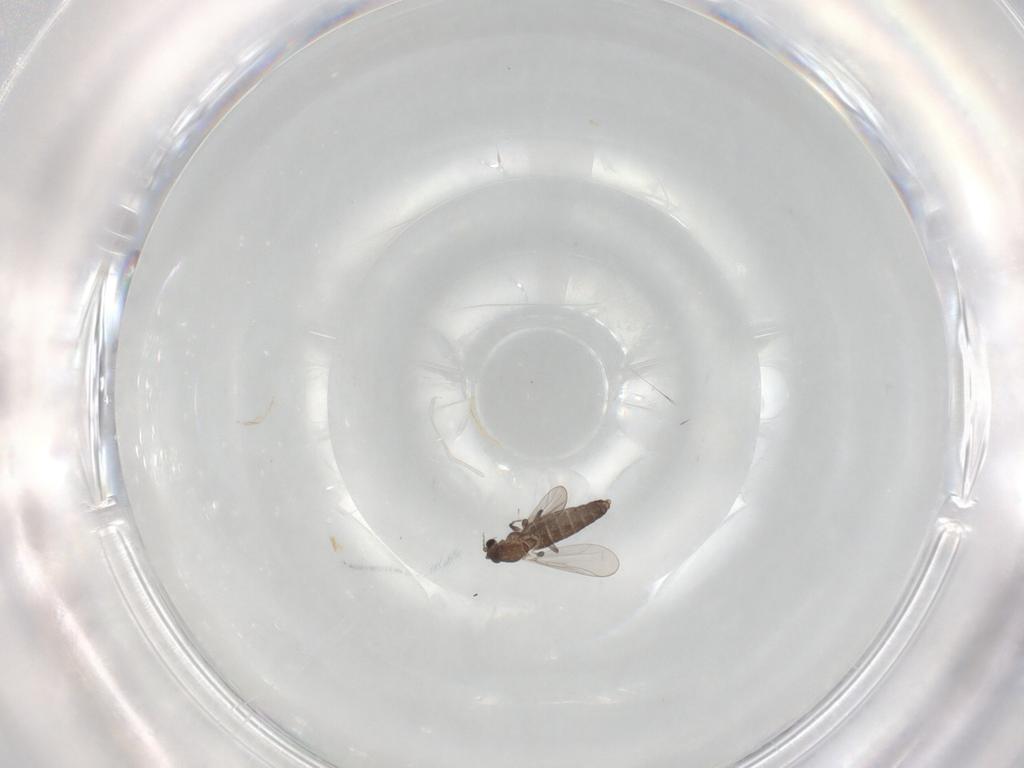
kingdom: Animalia
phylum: Arthropoda
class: Insecta
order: Diptera
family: Chironomidae
